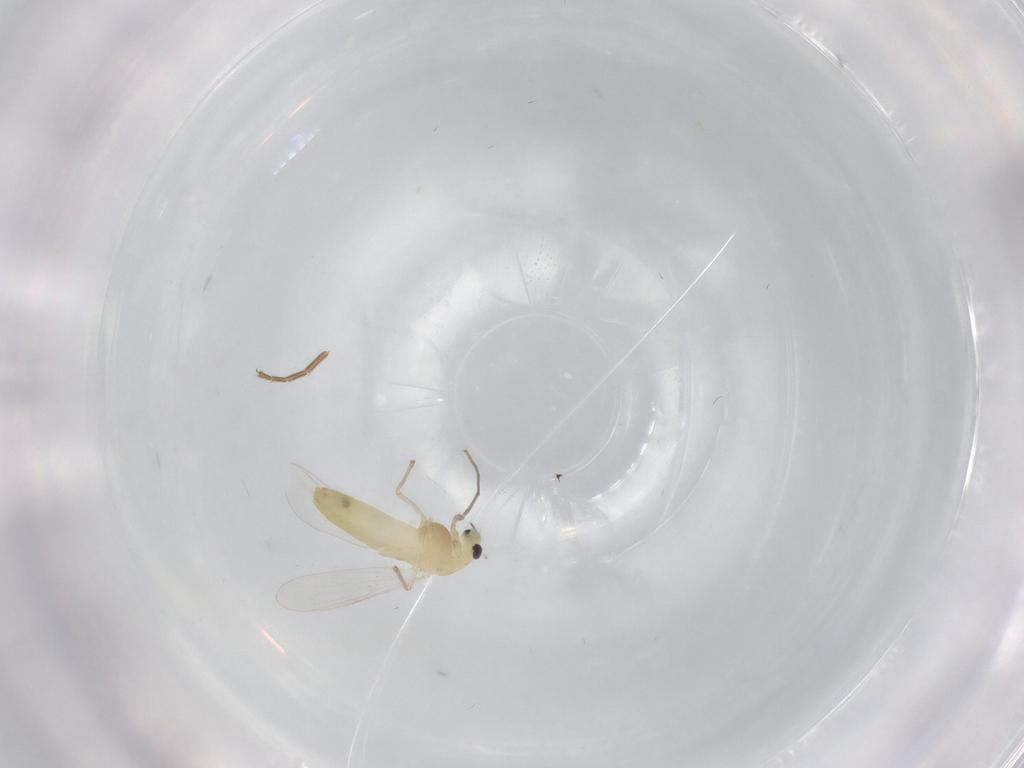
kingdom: Animalia
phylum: Arthropoda
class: Insecta
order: Diptera
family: Chironomidae
